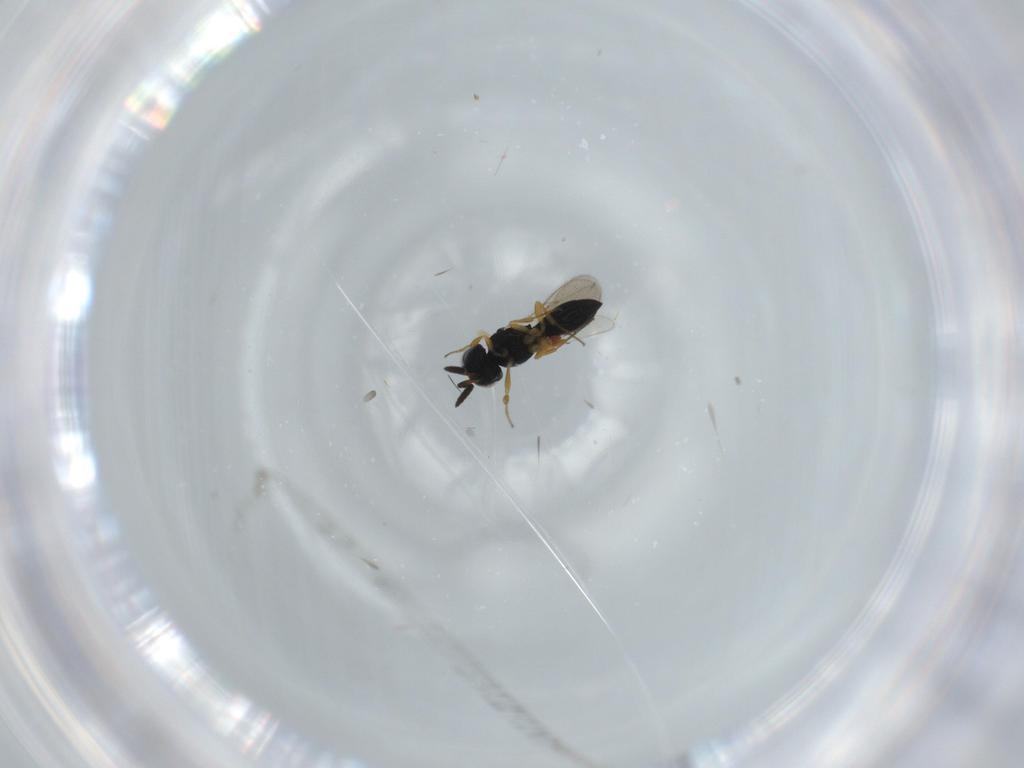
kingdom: Animalia
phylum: Arthropoda
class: Insecta
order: Hymenoptera
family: Scelionidae
